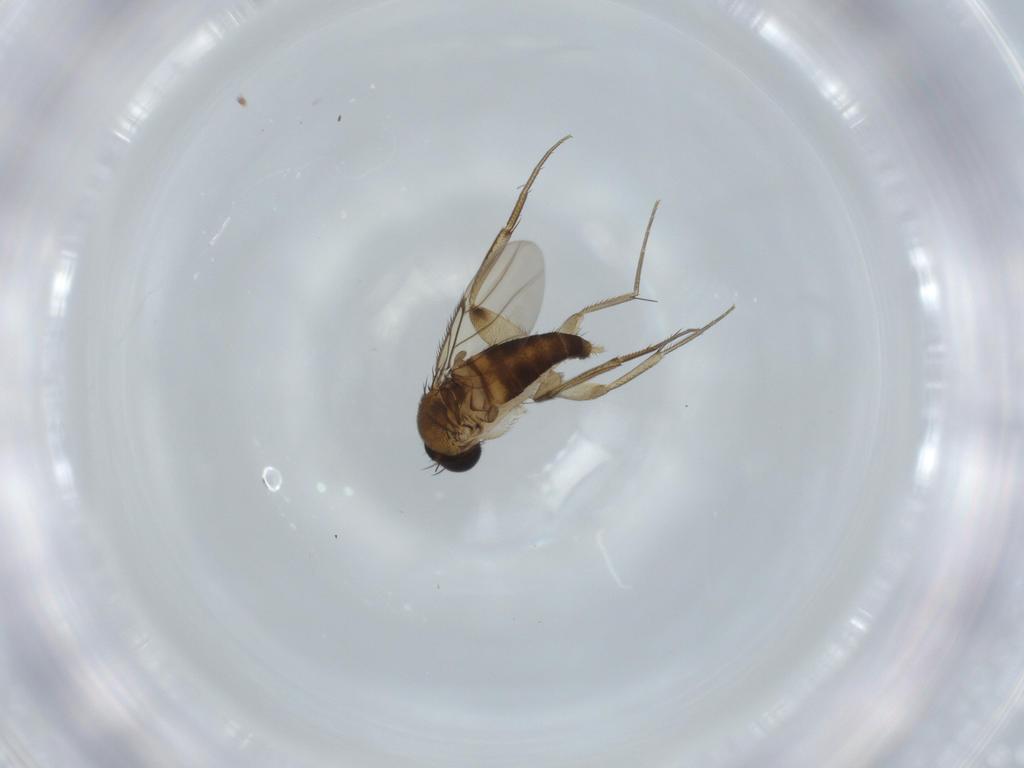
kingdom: Animalia
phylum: Arthropoda
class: Insecta
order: Diptera
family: Phoridae
